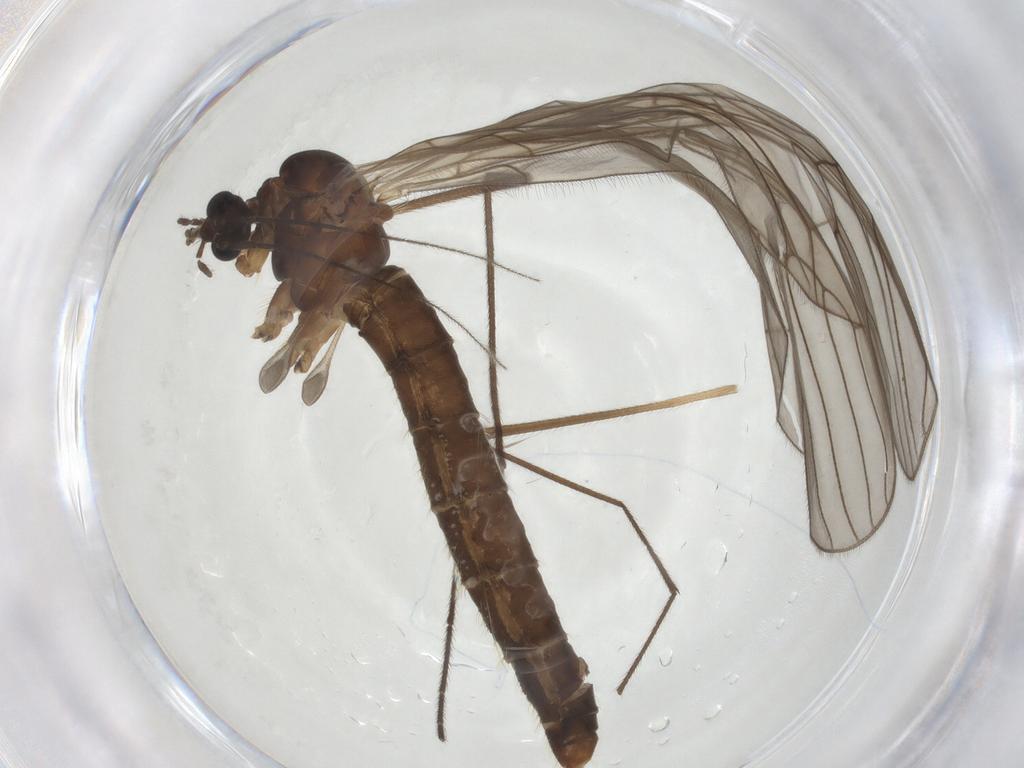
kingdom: Animalia
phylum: Arthropoda
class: Insecta
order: Diptera
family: Trichoceridae
